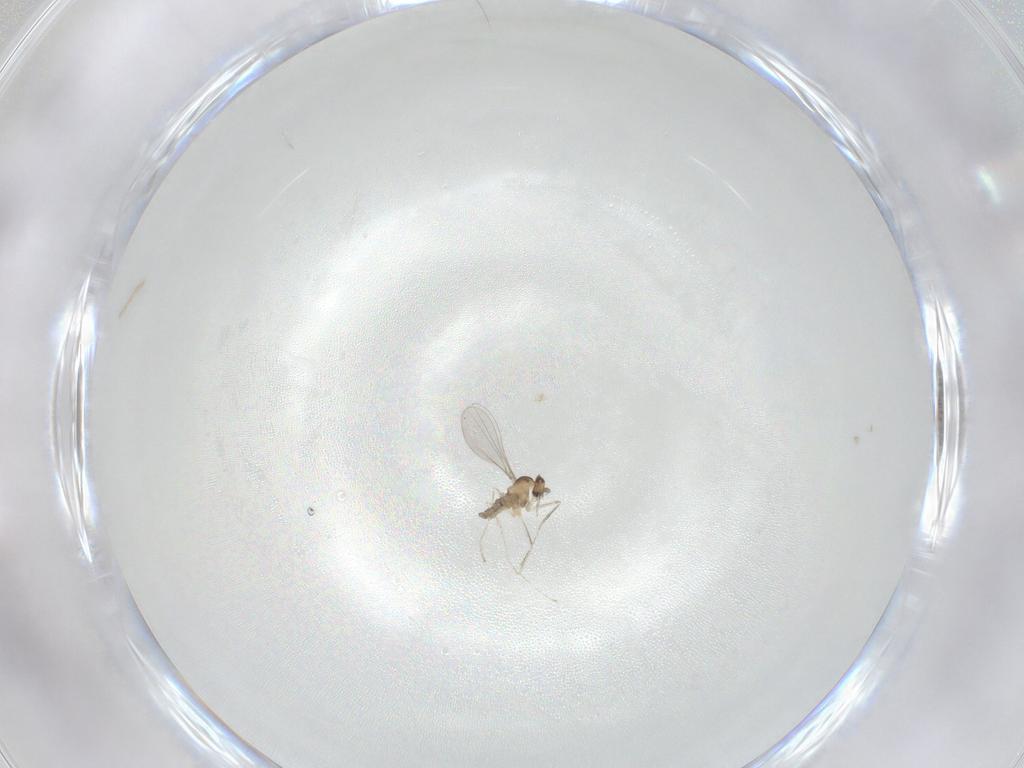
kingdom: Animalia
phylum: Arthropoda
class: Insecta
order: Diptera
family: Cecidomyiidae
